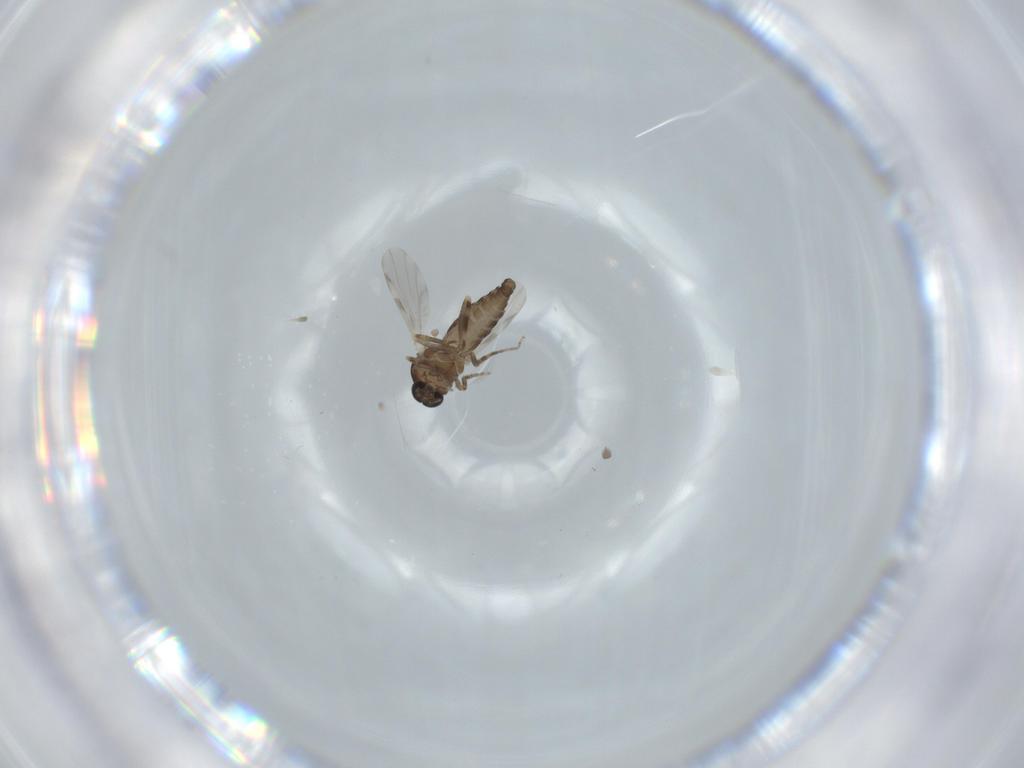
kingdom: Animalia
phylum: Arthropoda
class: Insecta
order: Diptera
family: Ceratopogonidae
